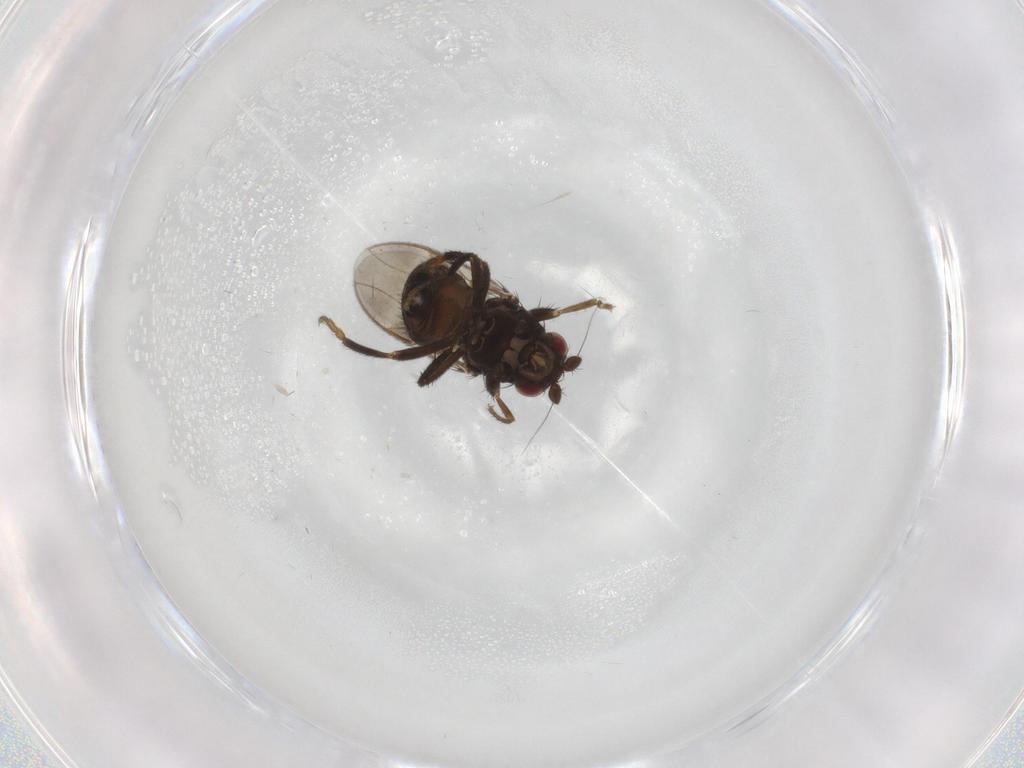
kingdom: Animalia
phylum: Arthropoda
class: Insecta
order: Diptera
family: Sphaeroceridae
